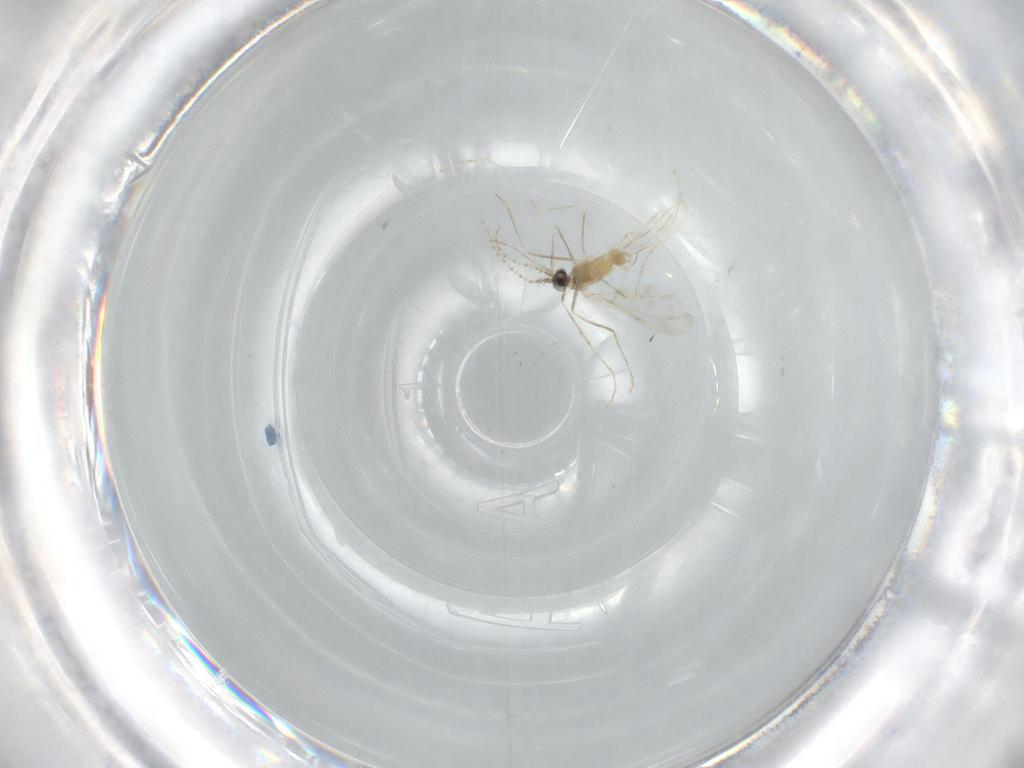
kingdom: Animalia
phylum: Arthropoda
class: Insecta
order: Diptera
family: Cecidomyiidae
